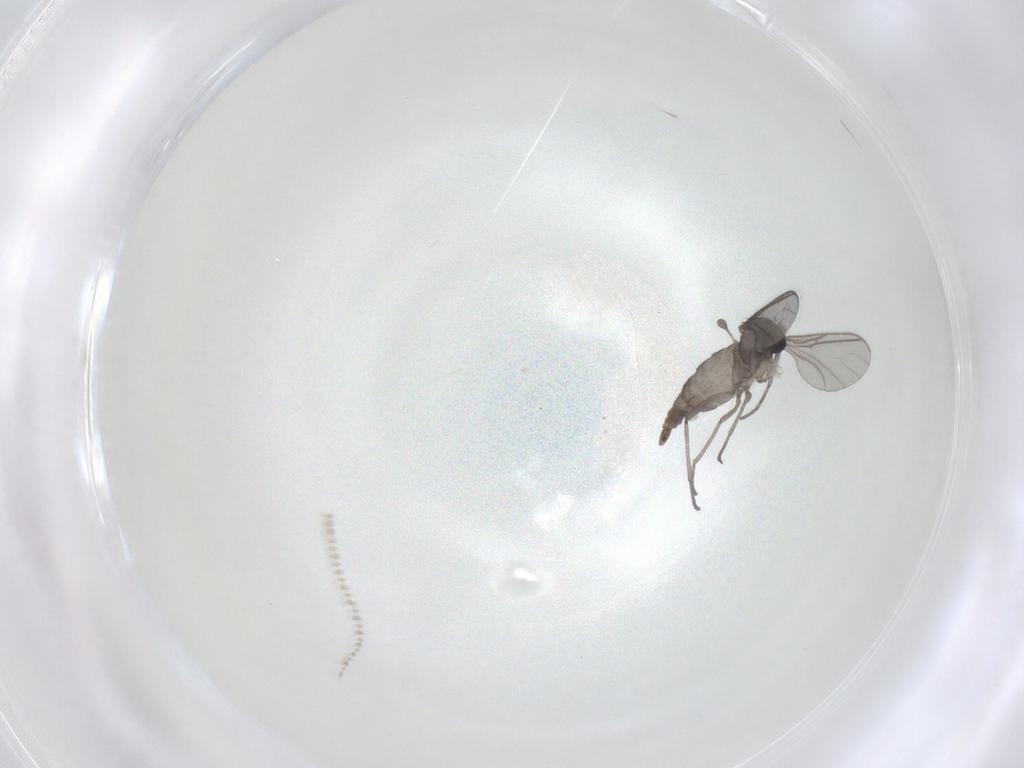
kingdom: Animalia
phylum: Arthropoda
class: Insecta
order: Diptera
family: Cecidomyiidae
